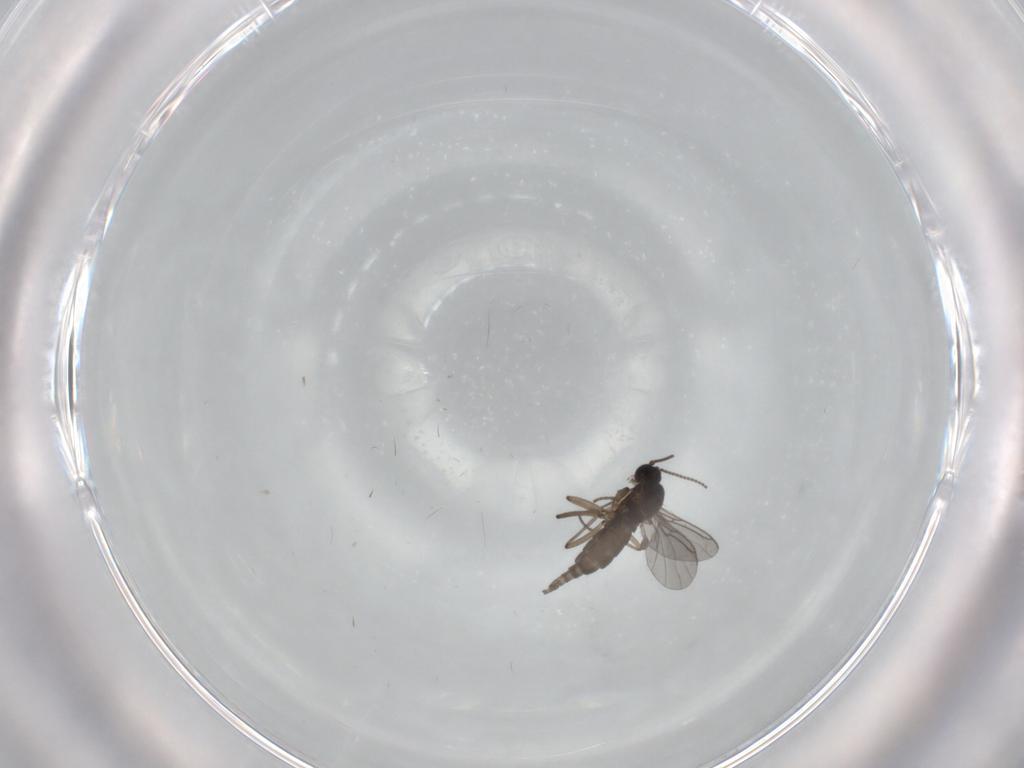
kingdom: Animalia
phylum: Arthropoda
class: Insecta
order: Diptera
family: Sciaridae
